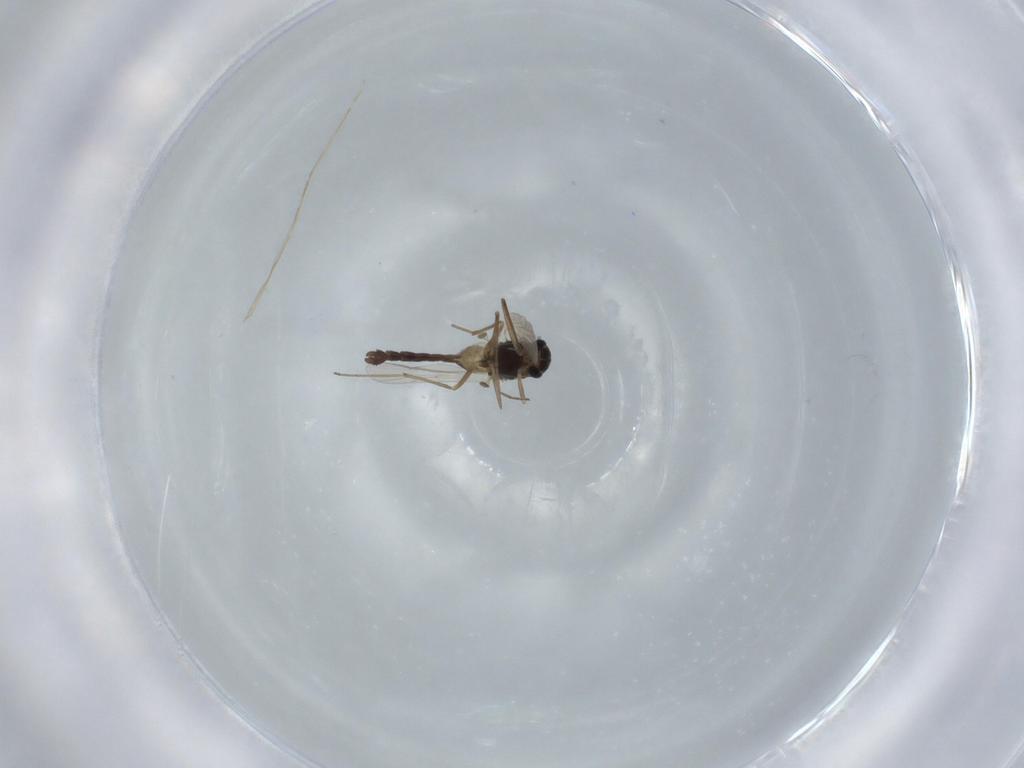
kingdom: Animalia
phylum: Arthropoda
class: Insecta
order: Diptera
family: Chironomidae
